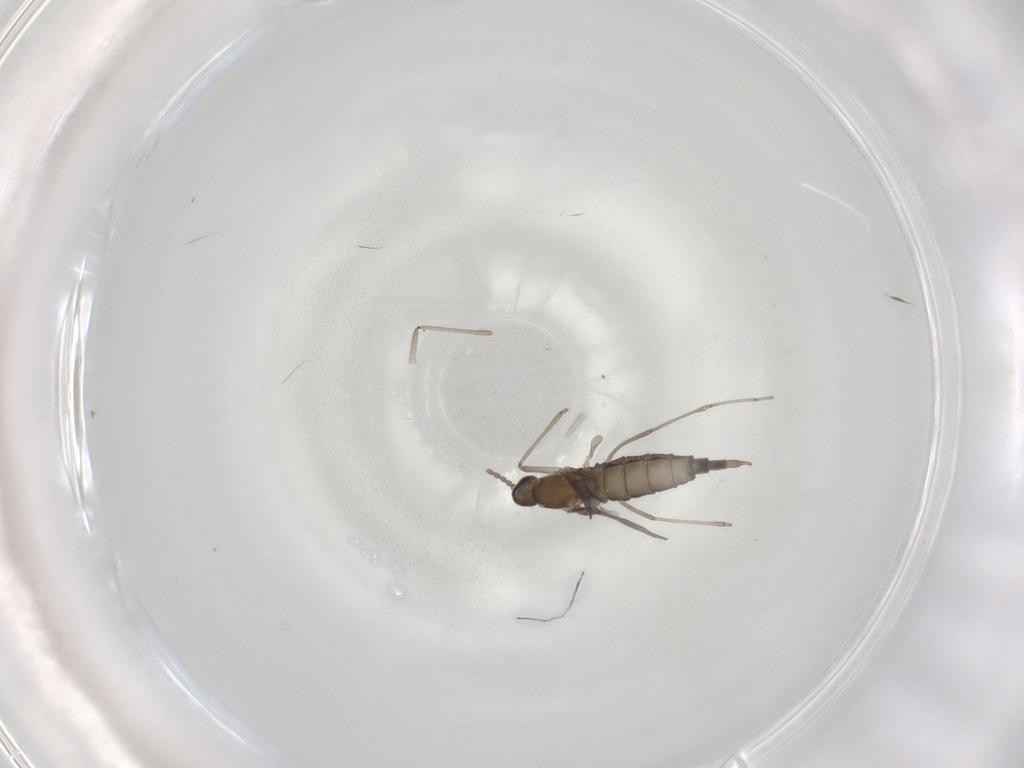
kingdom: Animalia
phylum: Arthropoda
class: Insecta
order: Diptera
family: Cecidomyiidae
